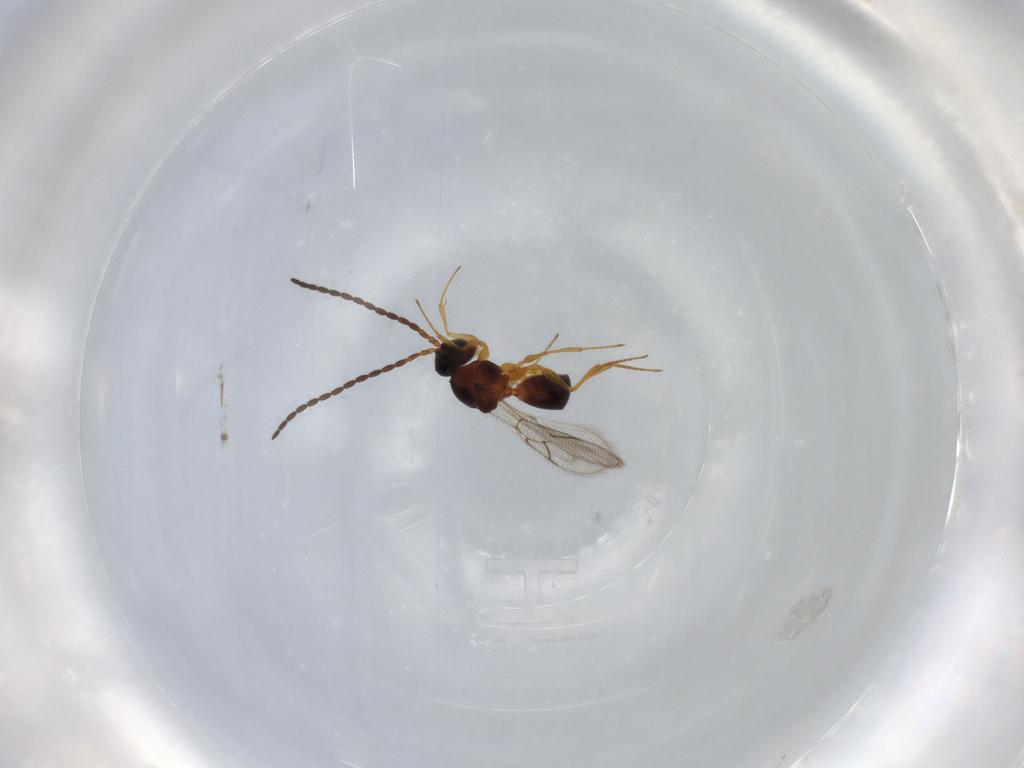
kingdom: Animalia
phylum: Arthropoda
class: Insecta
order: Hymenoptera
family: Figitidae
